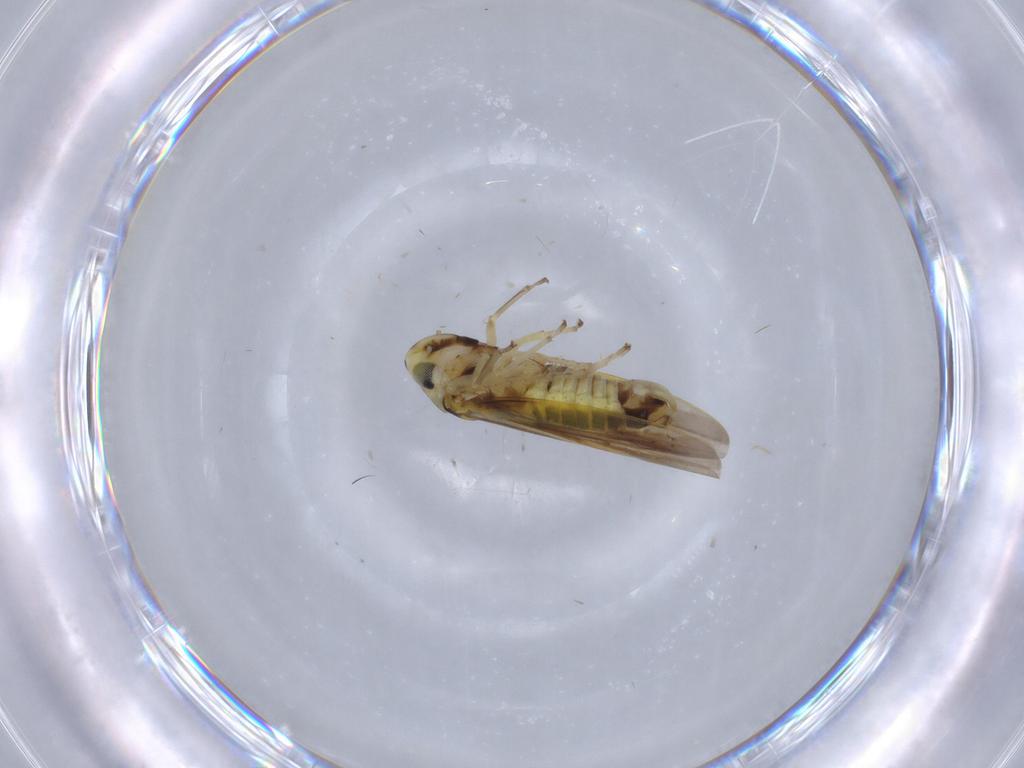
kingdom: Animalia
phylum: Arthropoda
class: Insecta
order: Hemiptera
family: Cicadellidae
